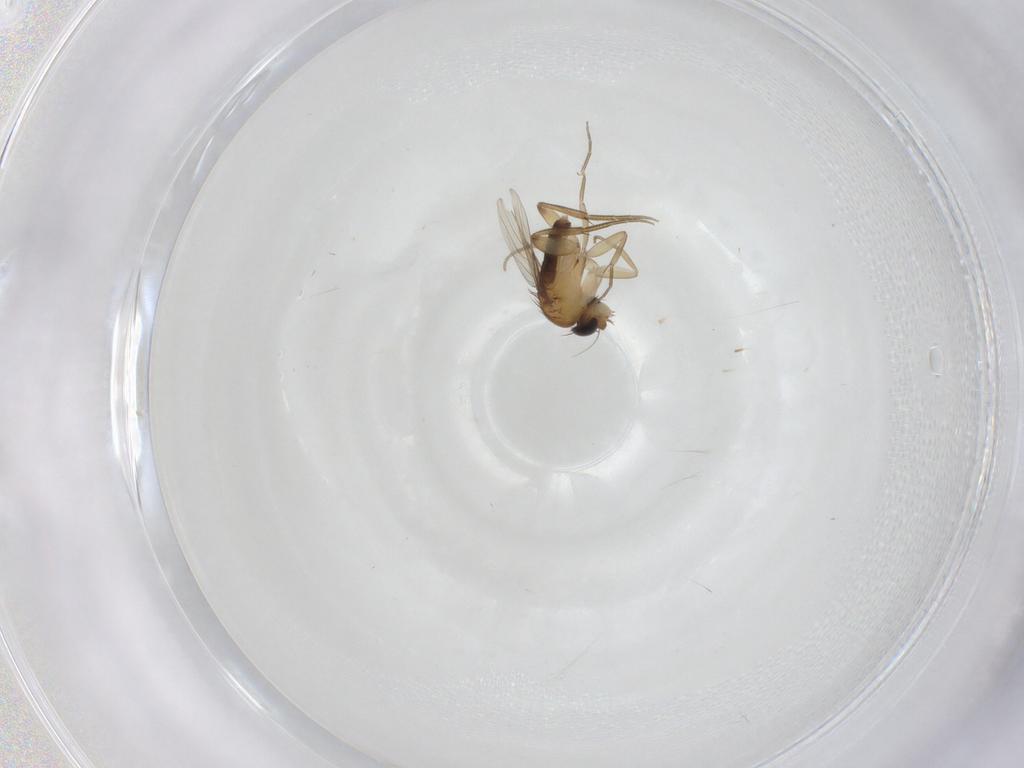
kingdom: Animalia
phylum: Arthropoda
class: Insecta
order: Diptera
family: Phoridae
